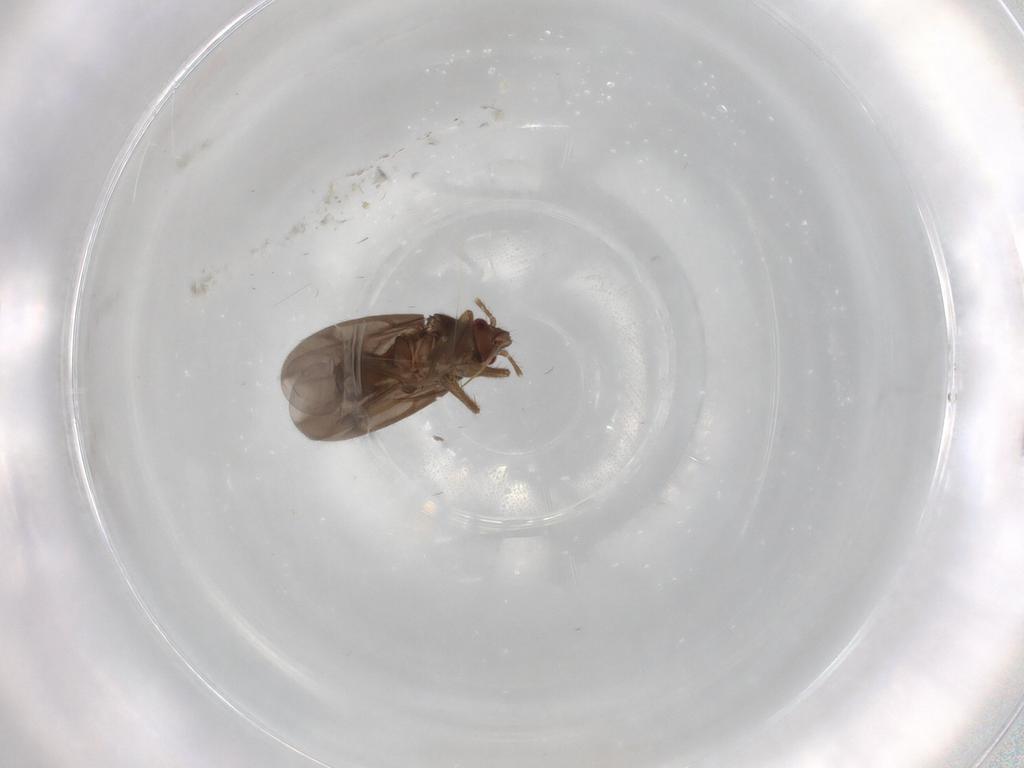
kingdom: Animalia
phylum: Arthropoda
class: Insecta
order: Hemiptera
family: Ceratocombidae
